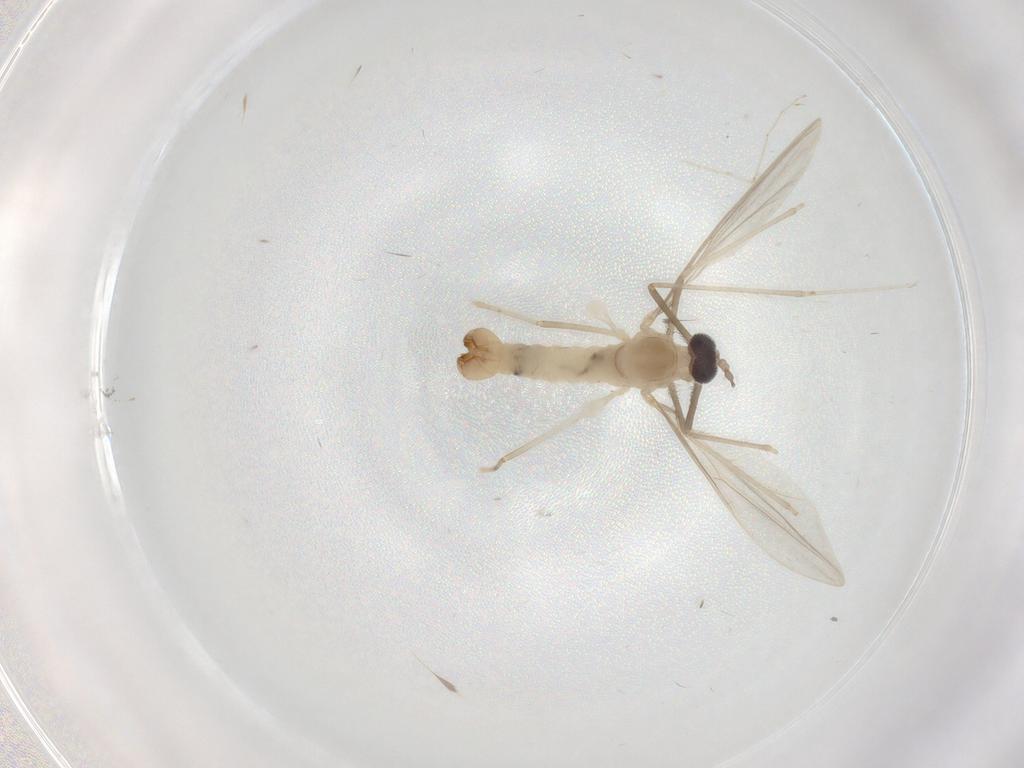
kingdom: Animalia
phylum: Arthropoda
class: Insecta
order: Diptera
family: Cecidomyiidae
